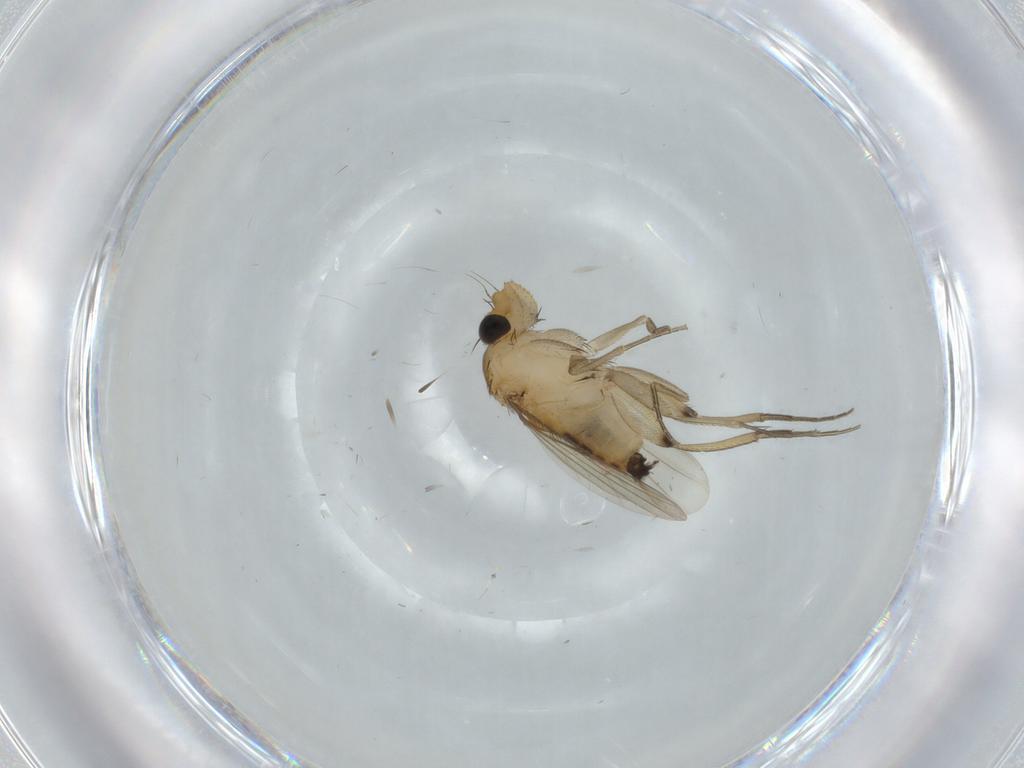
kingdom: Animalia
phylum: Arthropoda
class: Insecta
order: Diptera
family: Phoridae
